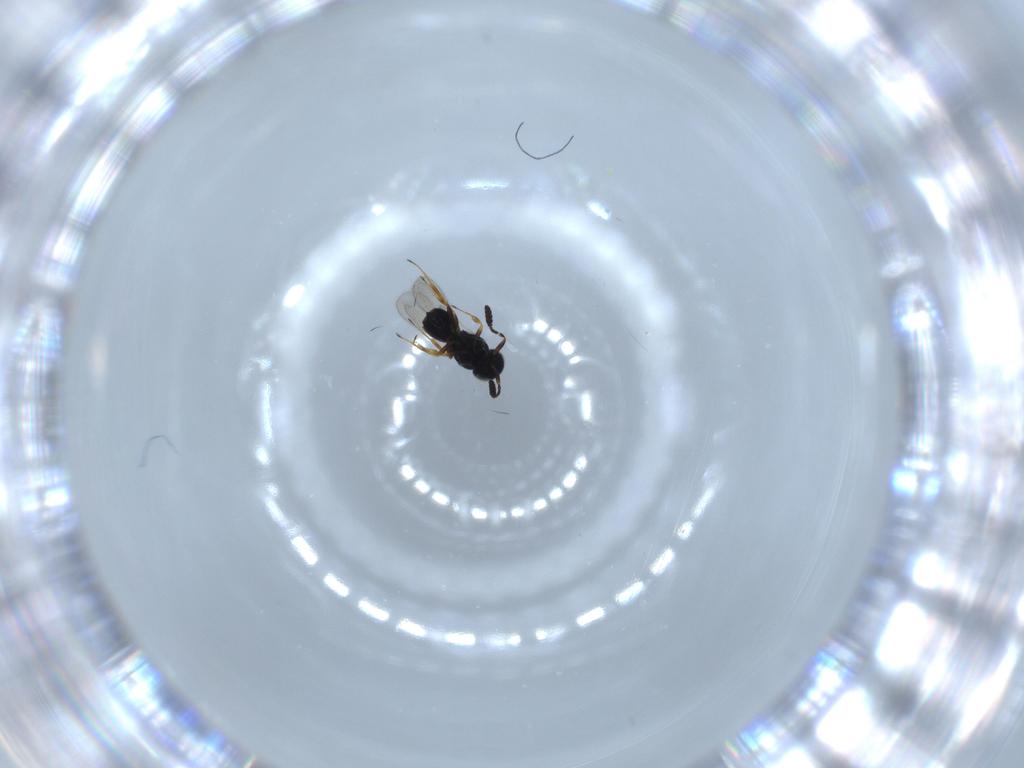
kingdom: Animalia
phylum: Arthropoda
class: Insecta
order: Hymenoptera
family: Scelionidae
